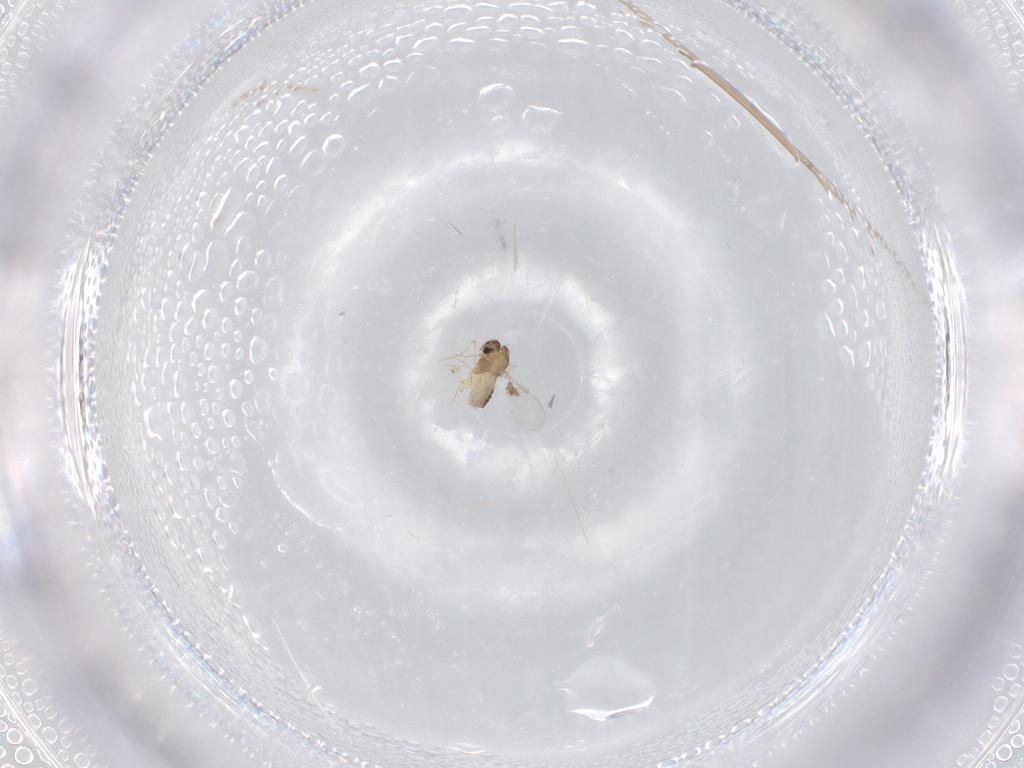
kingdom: Animalia
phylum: Arthropoda
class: Insecta
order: Diptera
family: Chironomidae
